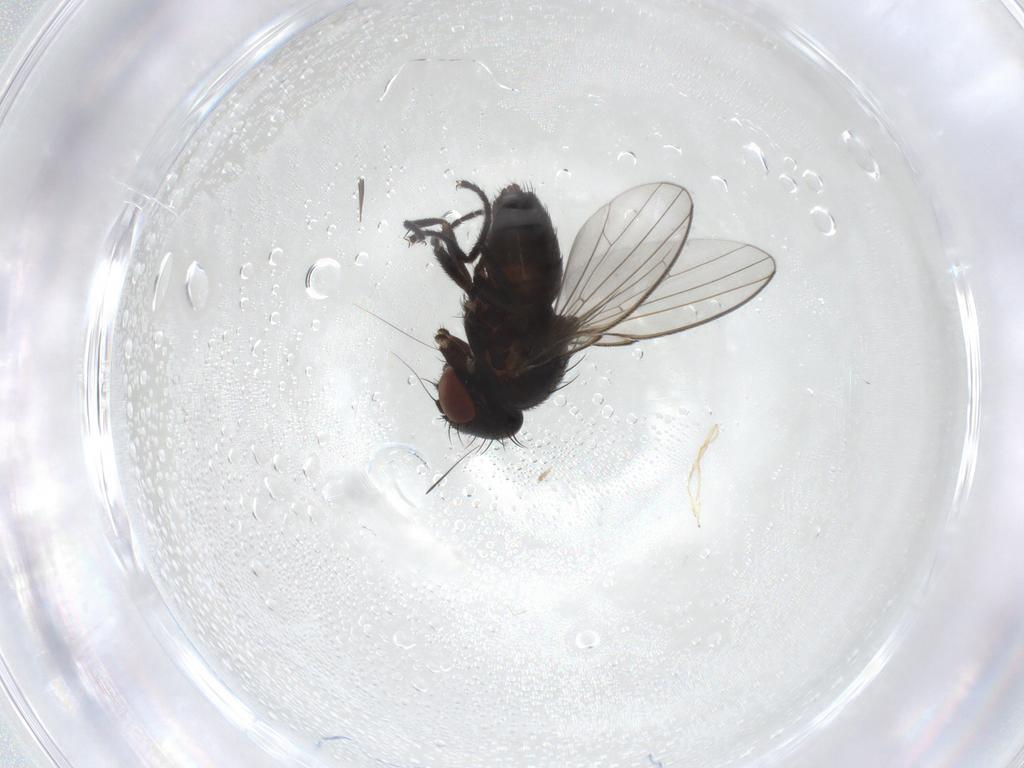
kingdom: Animalia
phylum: Arthropoda
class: Insecta
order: Diptera
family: Milichiidae
